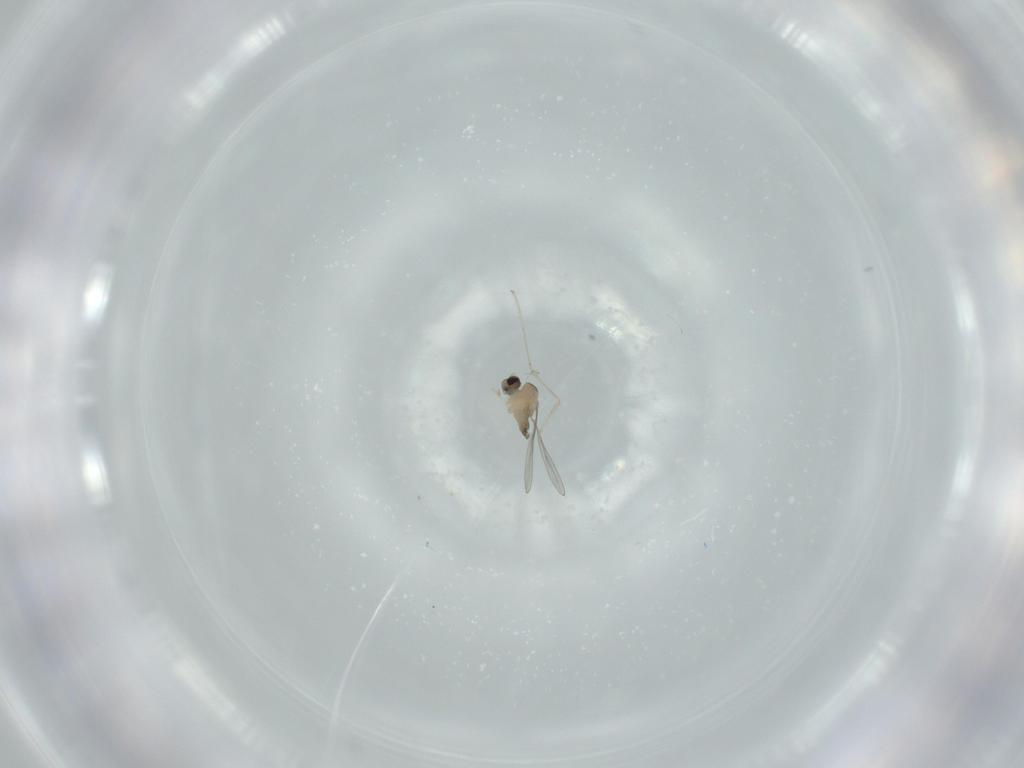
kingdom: Animalia
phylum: Arthropoda
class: Insecta
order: Diptera
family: Cecidomyiidae
